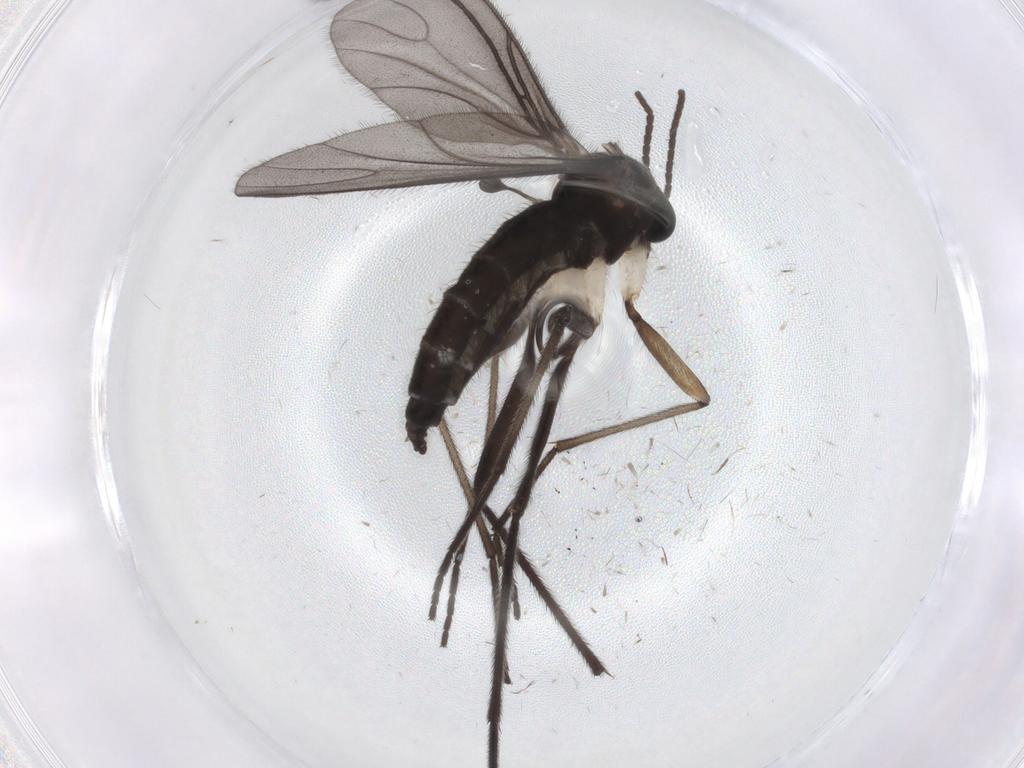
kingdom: Animalia
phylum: Arthropoda
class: Insecta
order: Diptera
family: Sciaridae
